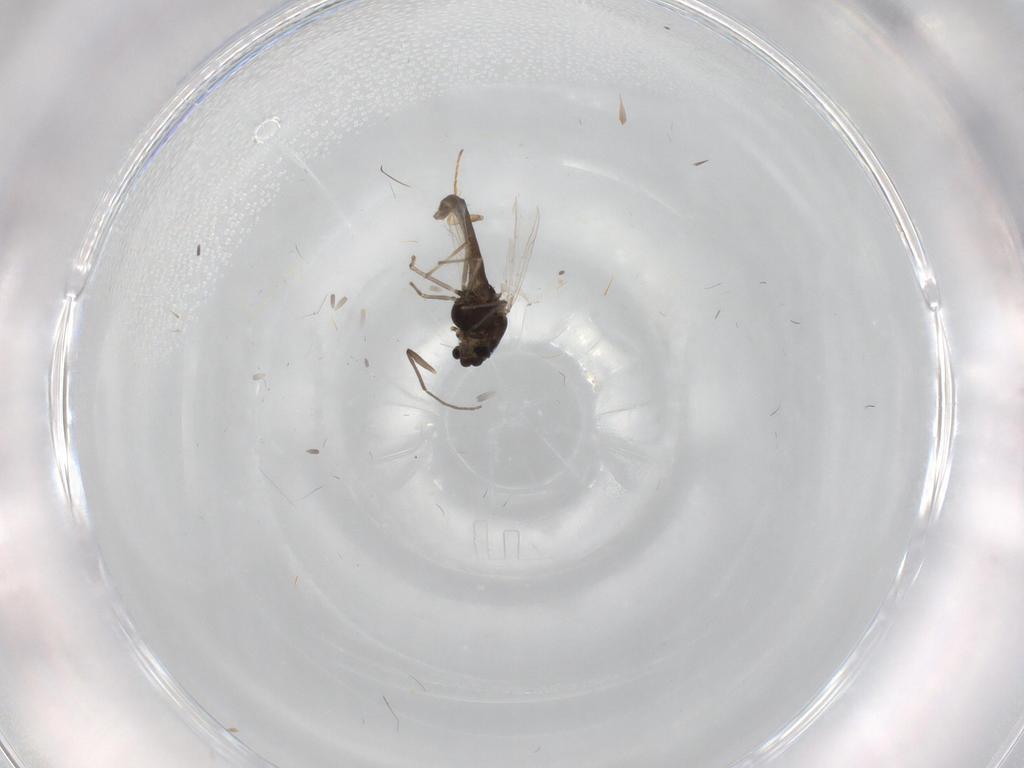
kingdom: Animalia
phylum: Arthropoda
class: Insecta
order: Diptera
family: Chironomidae
